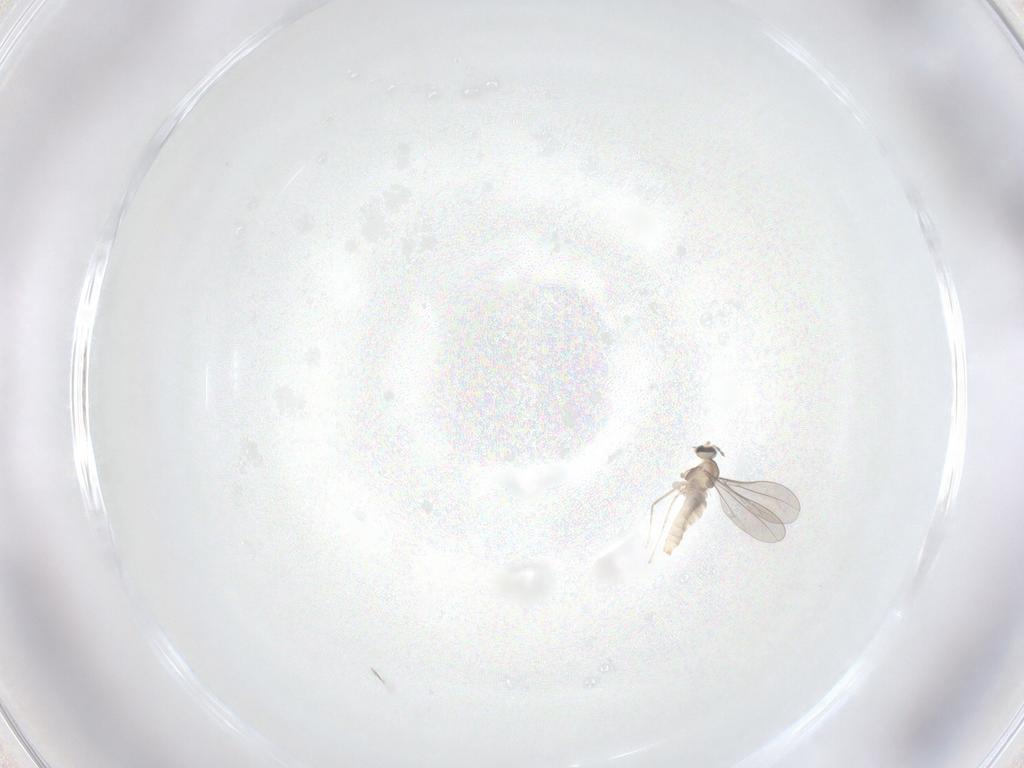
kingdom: Animalia
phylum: Arthropoda
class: Insecta
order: Diptera
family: Cecidomyiidae
